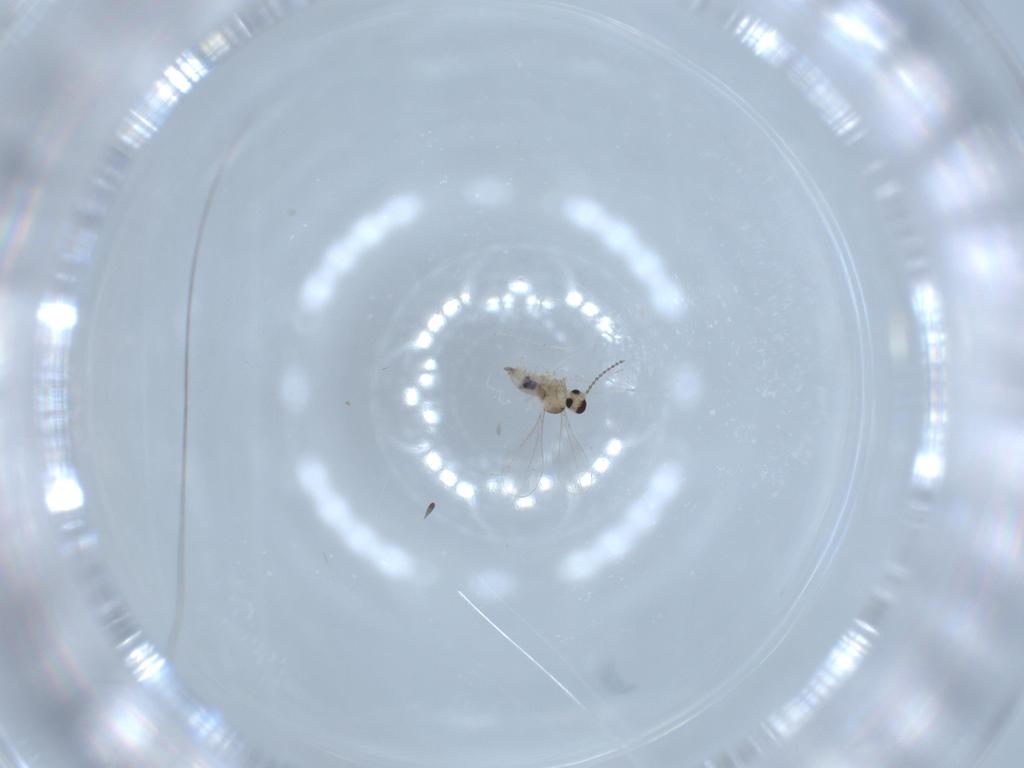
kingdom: Animalia
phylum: Arthropoda
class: Insecta
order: Diptera
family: Cecidomyiidae
